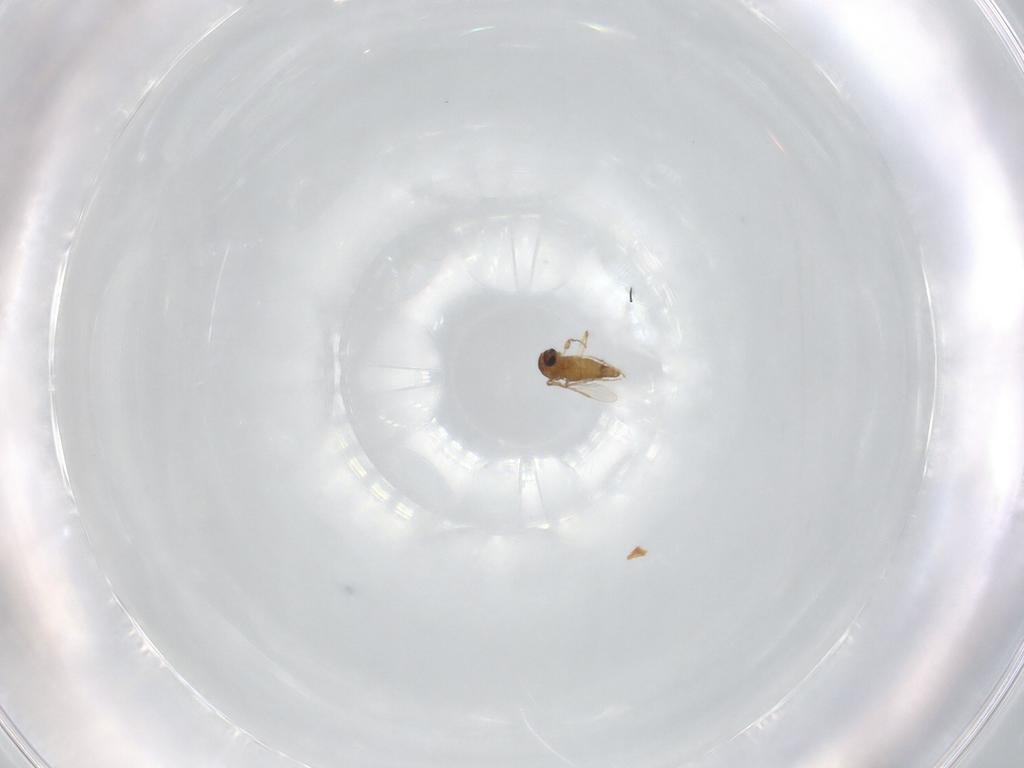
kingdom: Animalia
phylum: Arthropoda
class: Insecta
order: Diptera
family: Chironomidae
